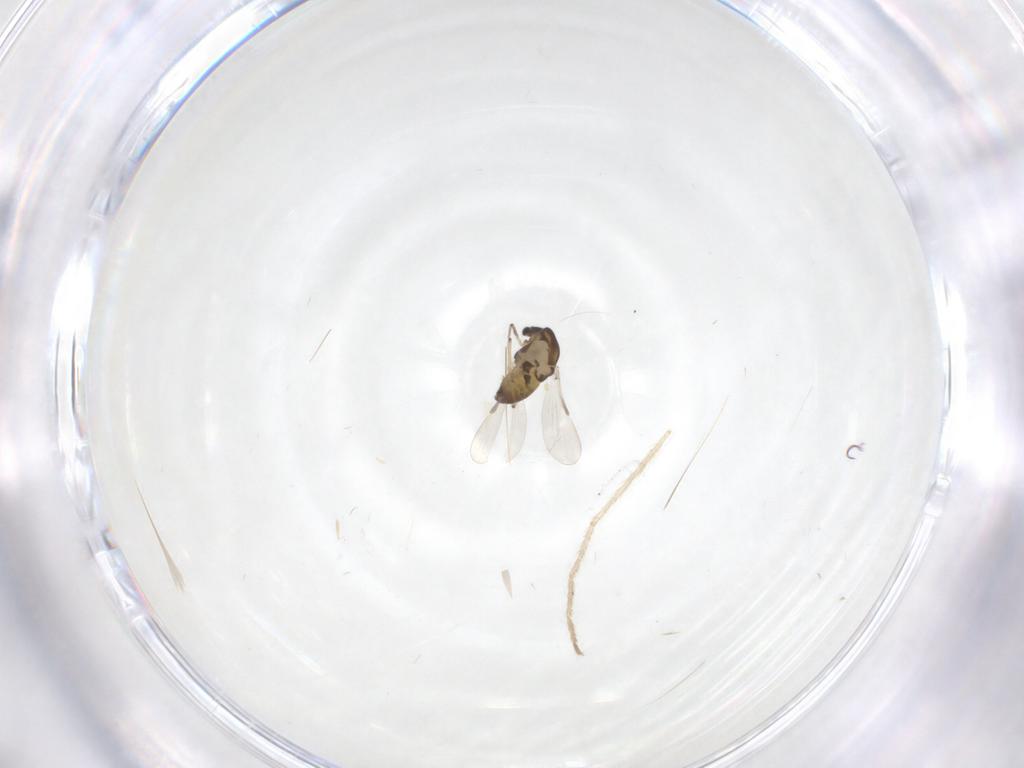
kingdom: Animalia
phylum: Arthropoda
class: Insecta
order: Diptera
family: Chironomidae
